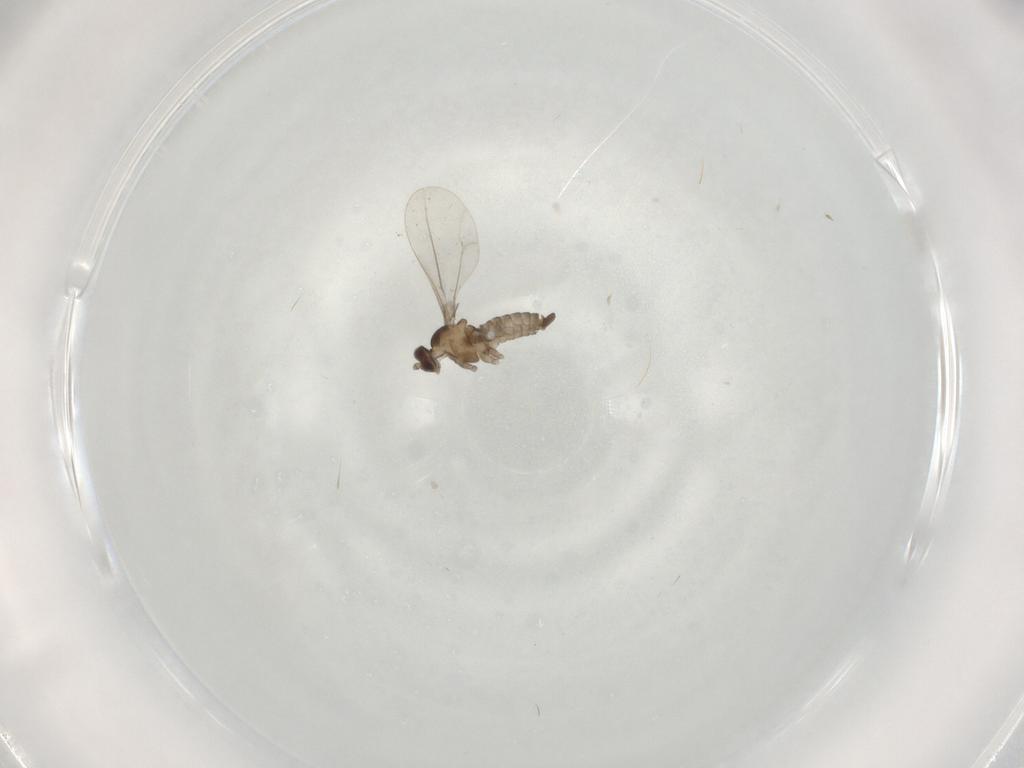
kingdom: Animalia
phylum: Arthropoda
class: Insecta
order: Diptera
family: Cecidomyiidae
